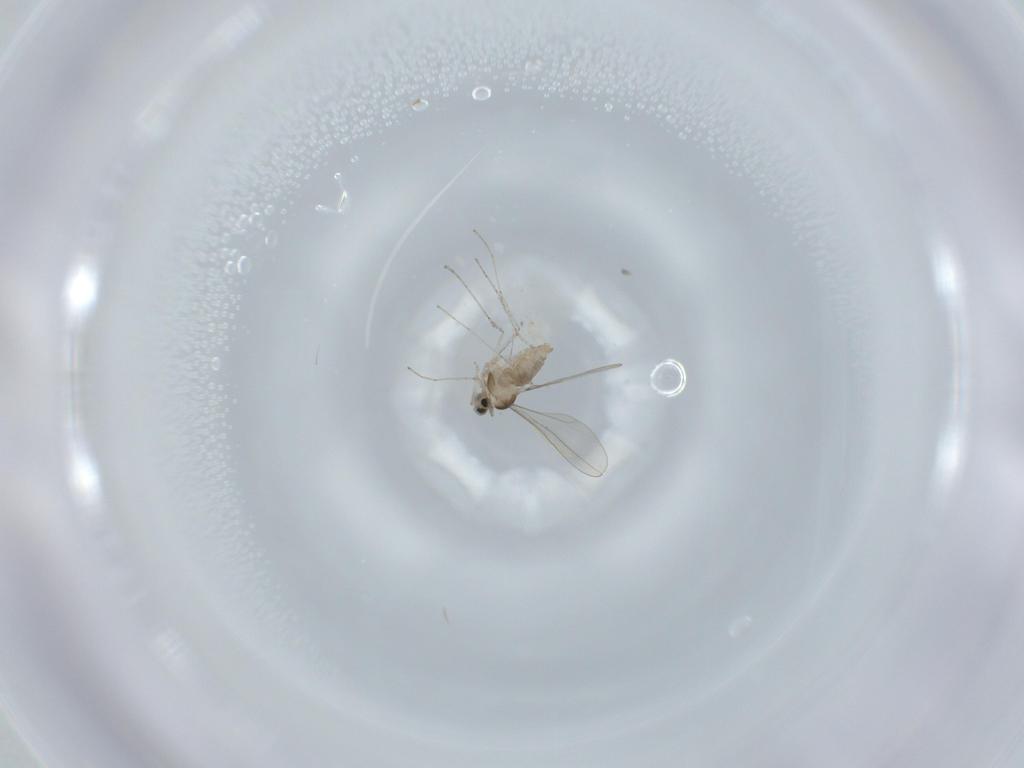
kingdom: Animalia
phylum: Arthropoda
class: Insecta
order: Diptera
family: Cecidomyiidae
